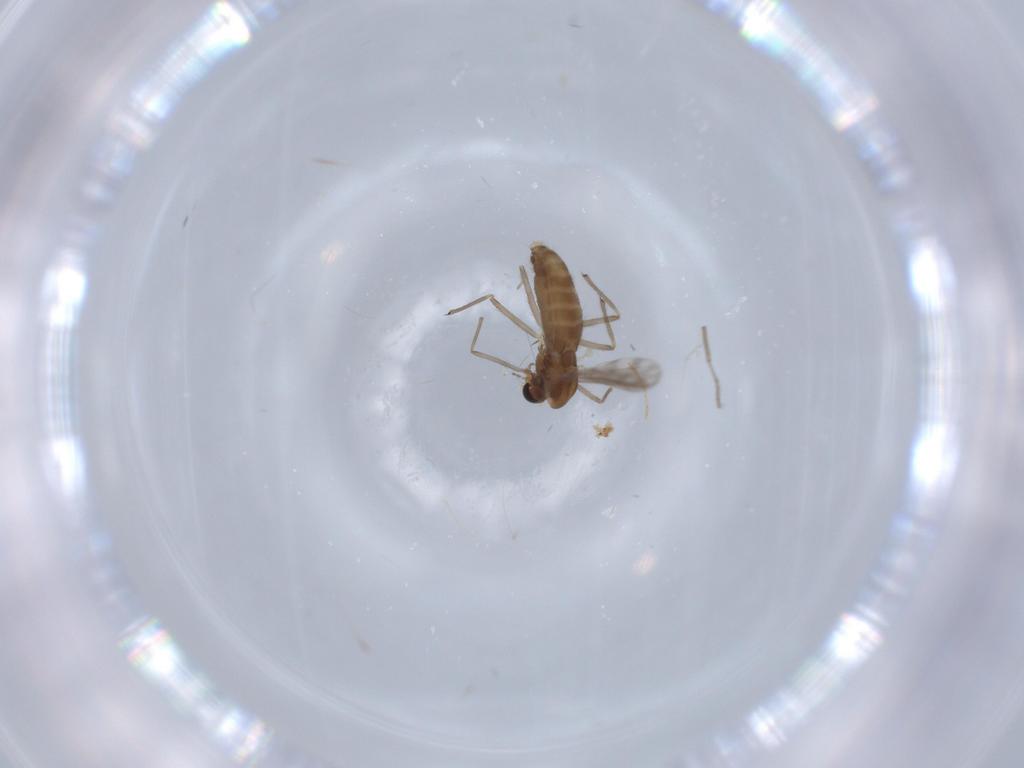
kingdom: Animalia
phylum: Arthropoda
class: Insecta
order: Diptera
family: Chironomidae
